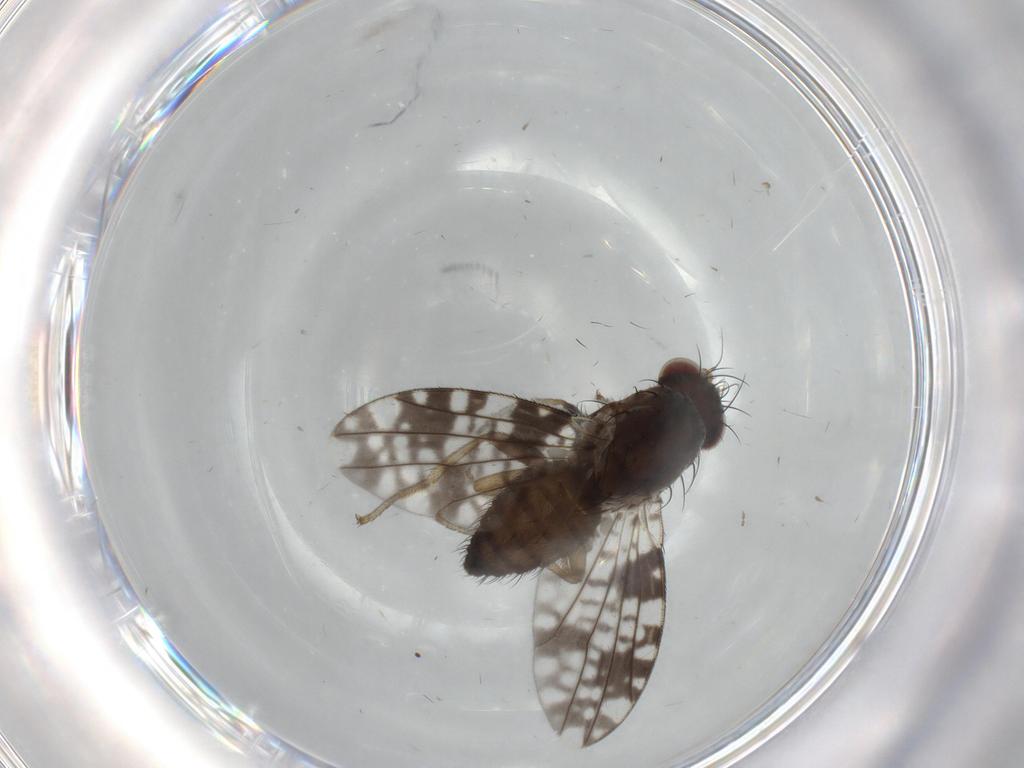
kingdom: Animalia
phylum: Arthropoda
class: Insecta
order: Diptera
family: Tephritidae
